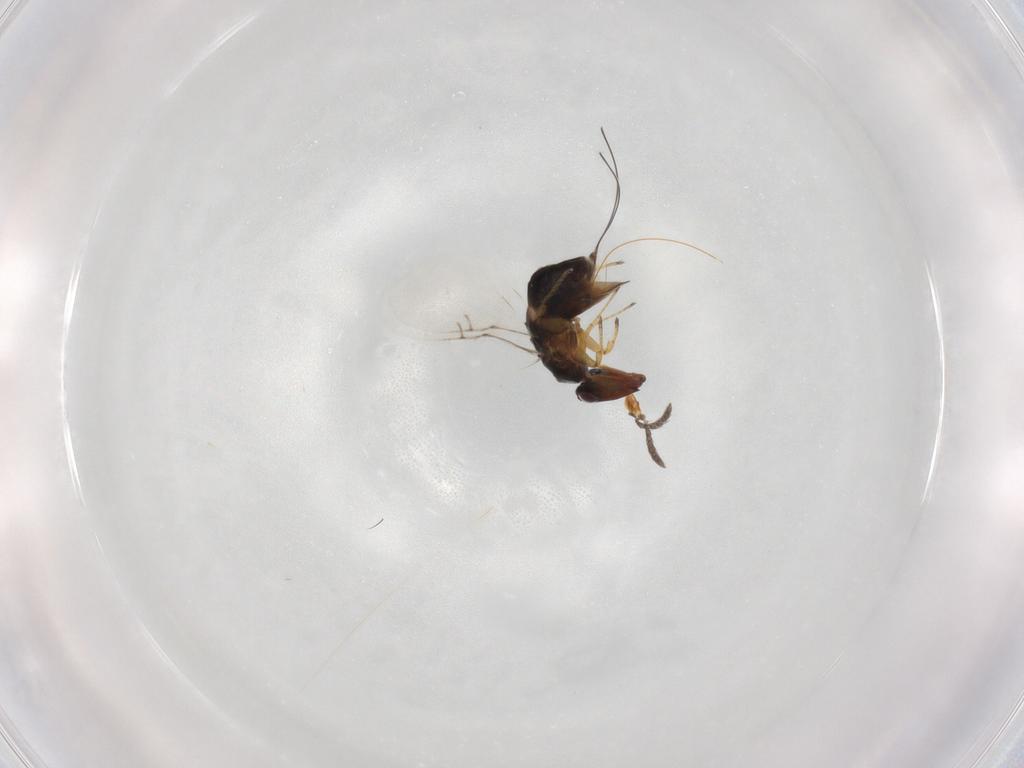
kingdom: Animalia
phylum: Arthropoda
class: Insecta
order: Hymenoptera
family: Agaonidae
